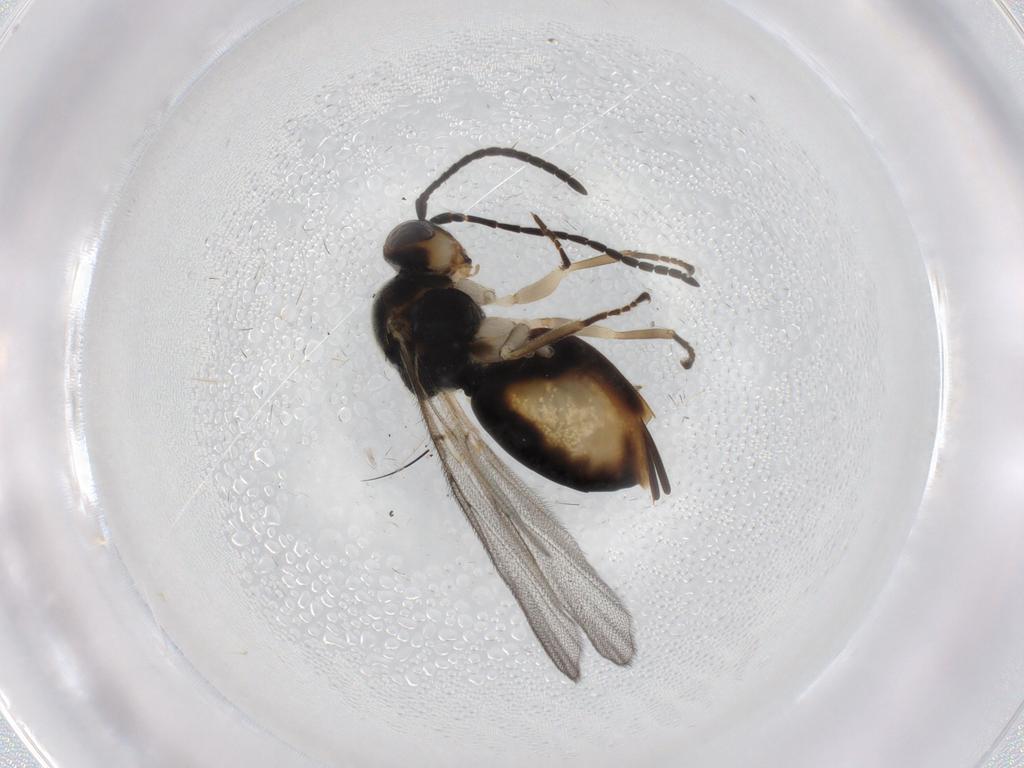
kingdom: Animalia
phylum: Arthropoda
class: Insecta
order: Hymenoptera
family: Cynipidae
